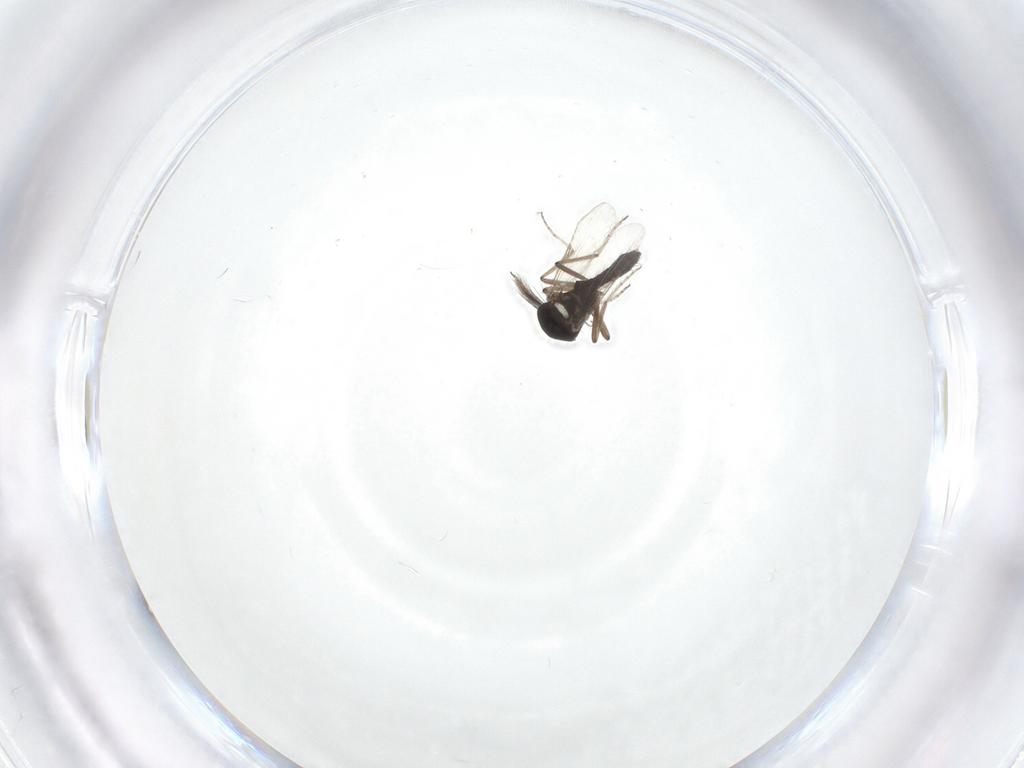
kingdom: Animalia
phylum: Arthropoda
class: Insecta
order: Diptera
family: Ceratopogonidae
